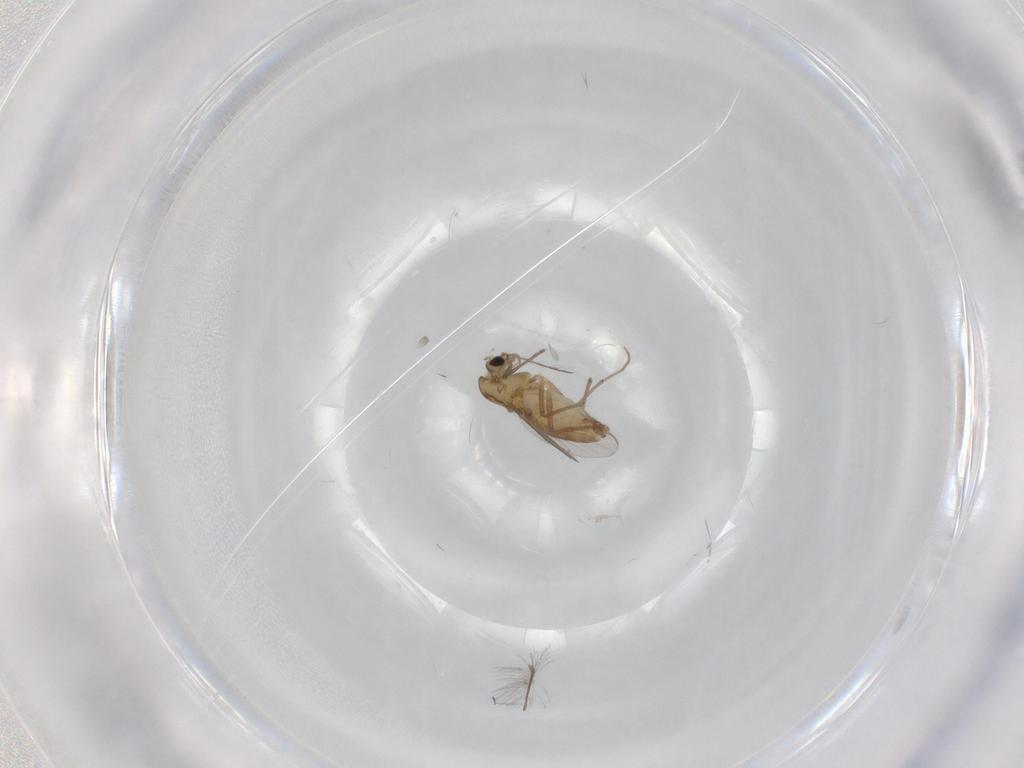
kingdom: Animalia
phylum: Arthropoda
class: Insecta
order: Diptera
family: Chironomidae
